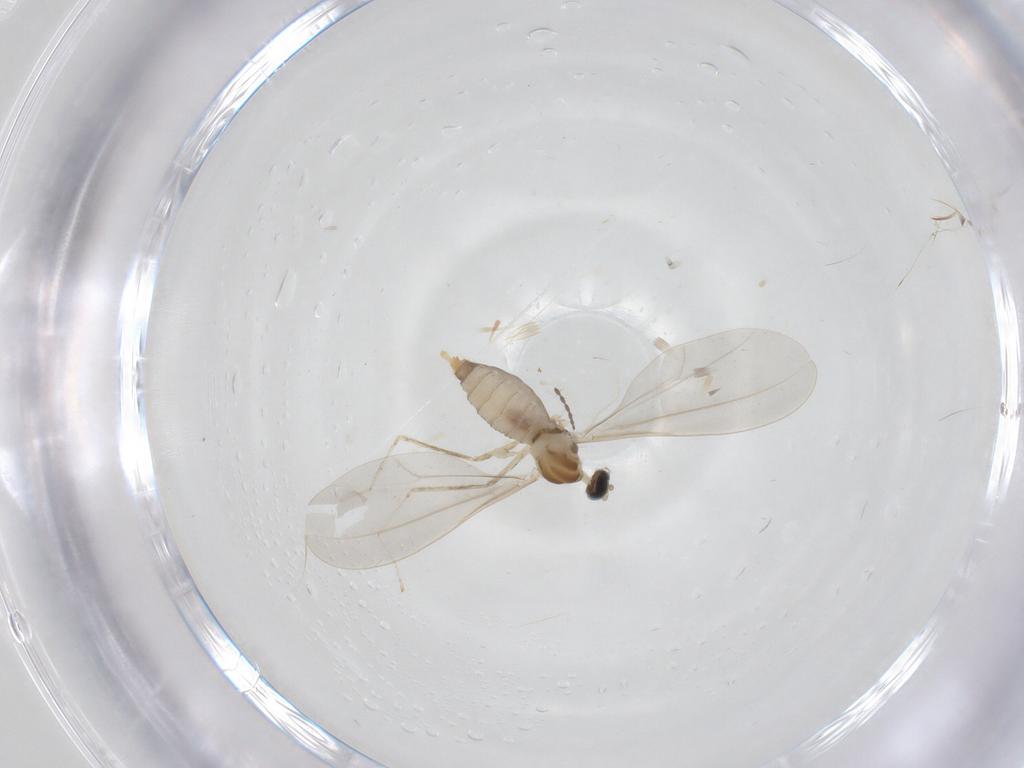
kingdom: Animalia
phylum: Arthropoda
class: Insecta
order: Diptera
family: Cecidomyiidae
